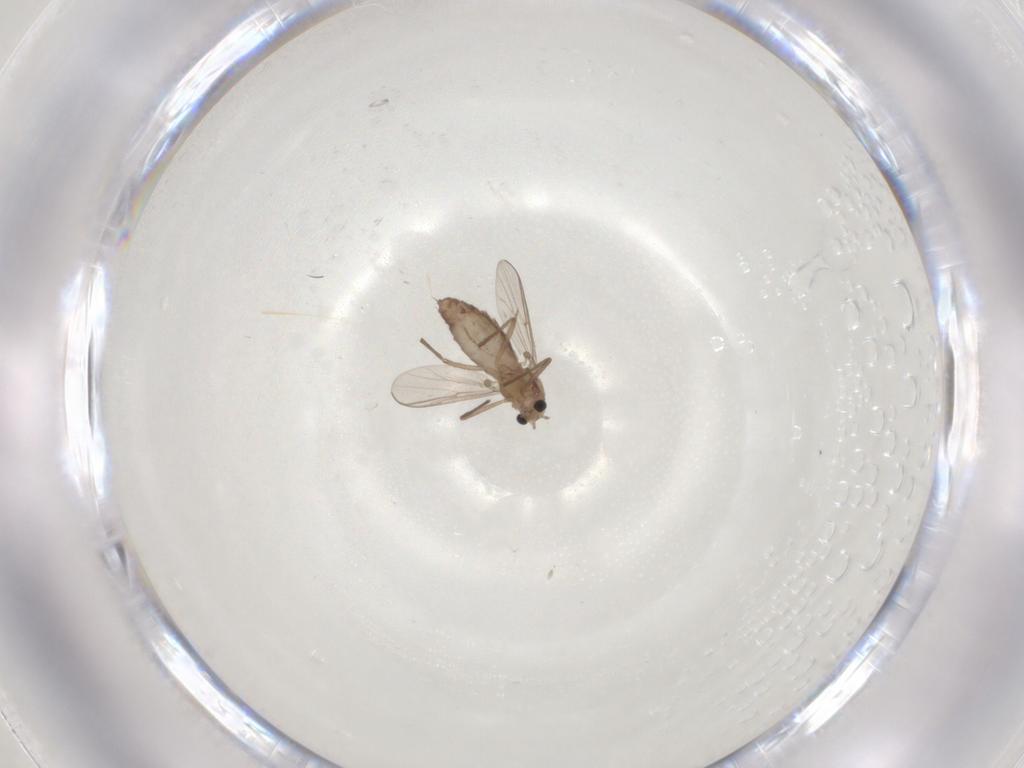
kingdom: Animalia
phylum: Arthropoda
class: Insecta
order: Diptera
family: Chironomidae
